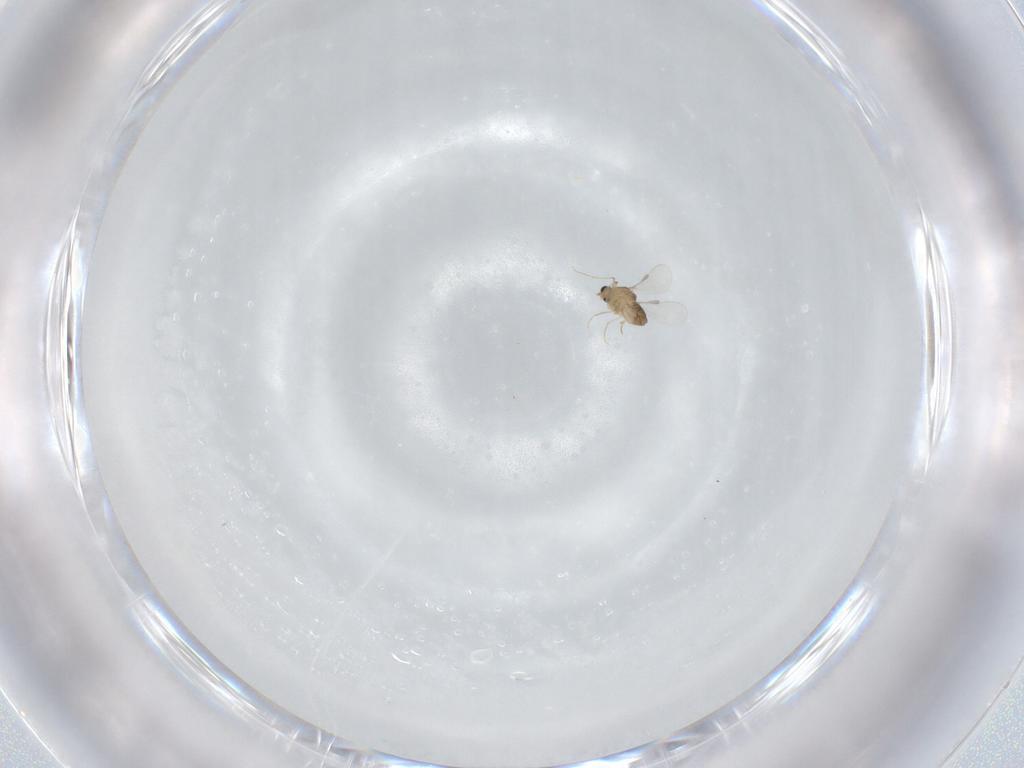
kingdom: Animalia
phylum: Arthropoda
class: Insecta
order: Diptera
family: Chironomidae
